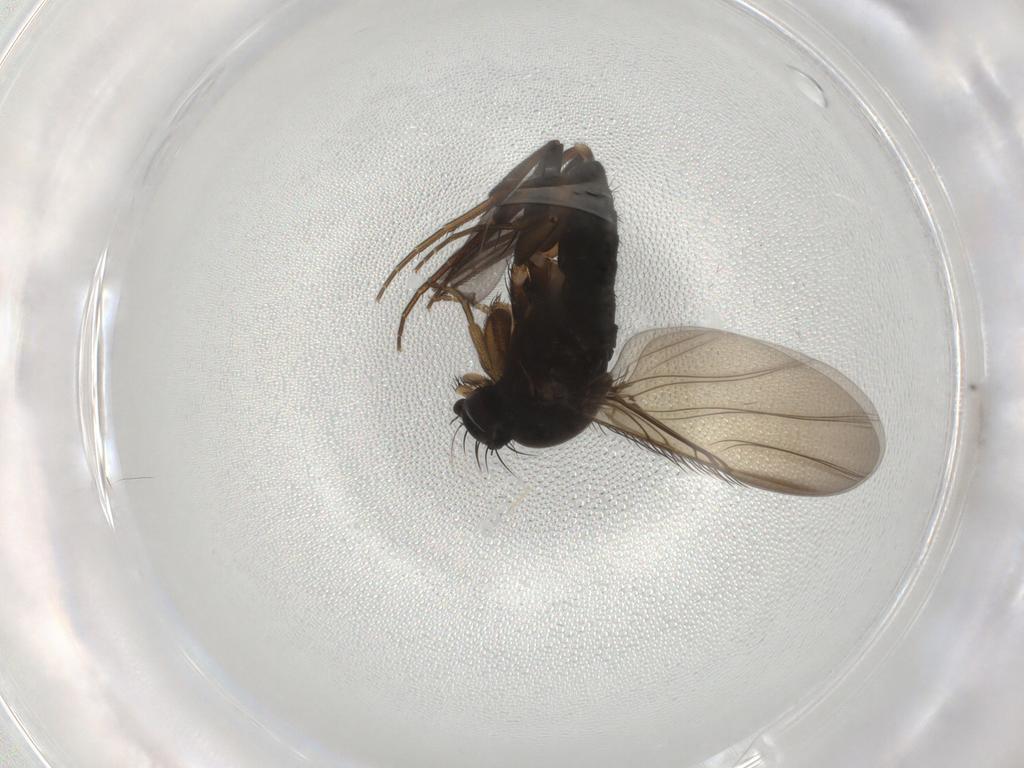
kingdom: Animalia
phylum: Arthropoda
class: Insecta
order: Diptera
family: Phoridae
